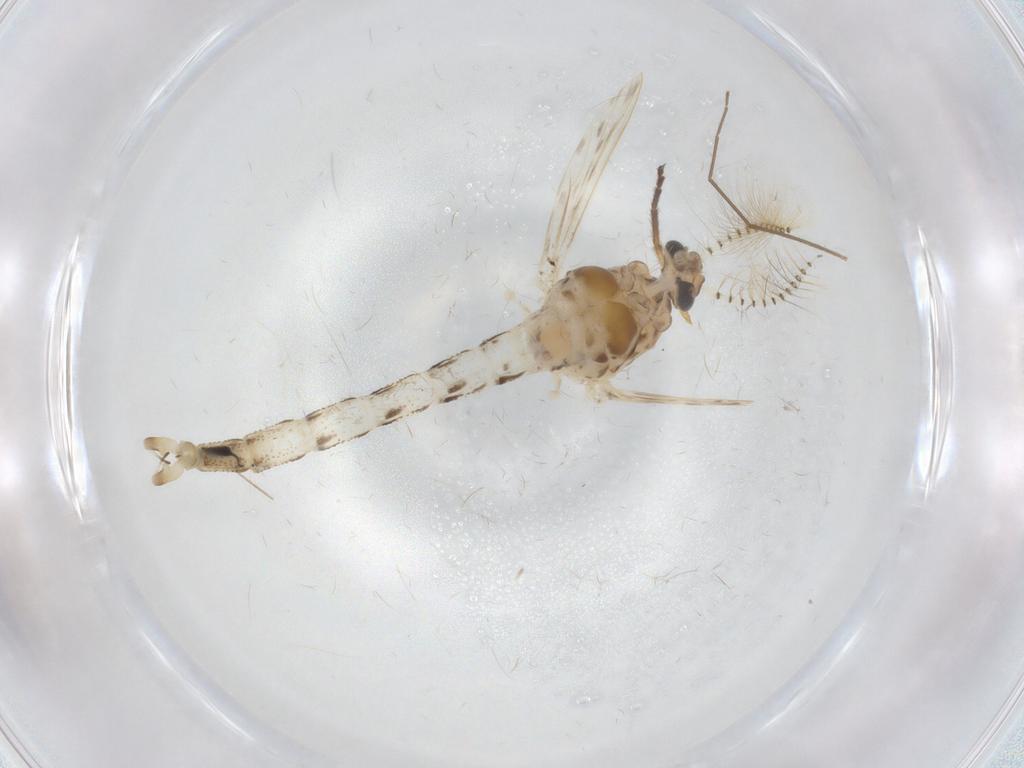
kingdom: Animalia
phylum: Arthropoda
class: Insecta
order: Diptera
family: Chaoboridae
